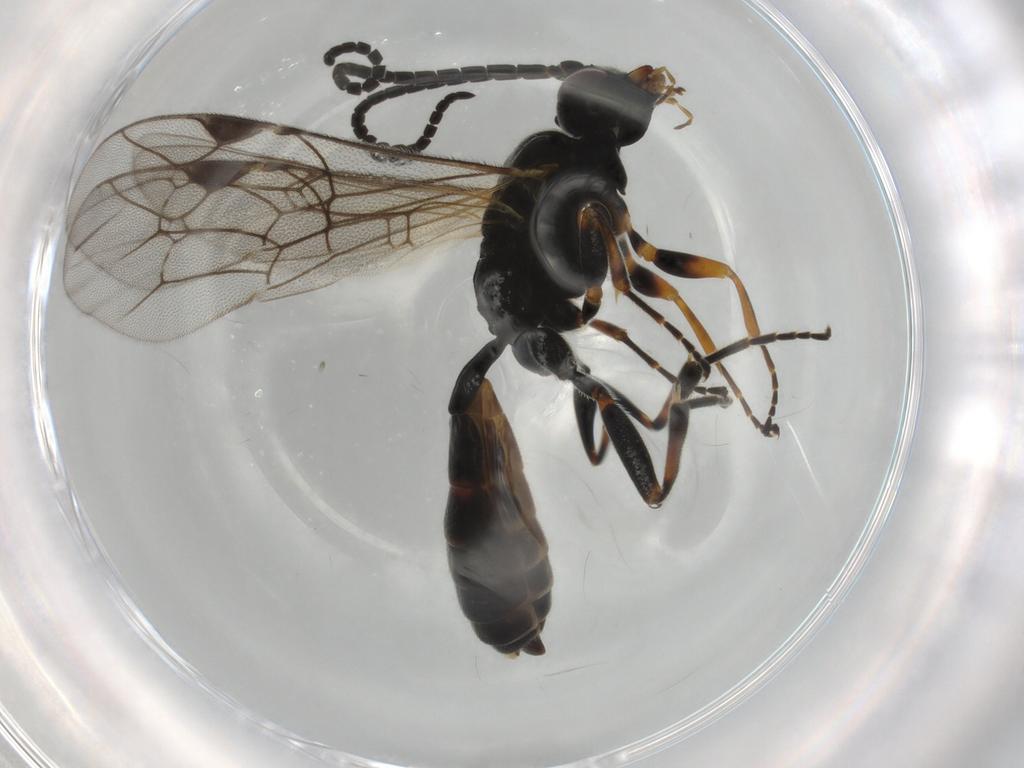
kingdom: Animalia
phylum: Arthropoda
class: Insecta
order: Hymenoptera
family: Ichneumonidae
